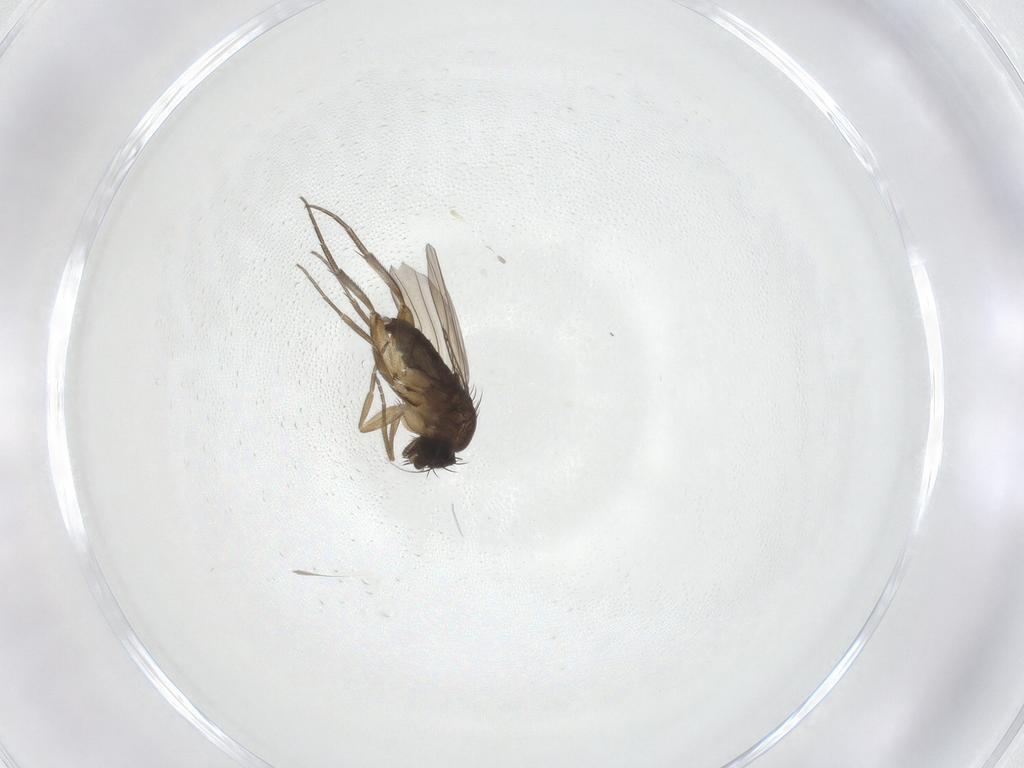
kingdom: Animalia
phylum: Arthropoda
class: Insecta
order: Diptera
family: Phoridae
